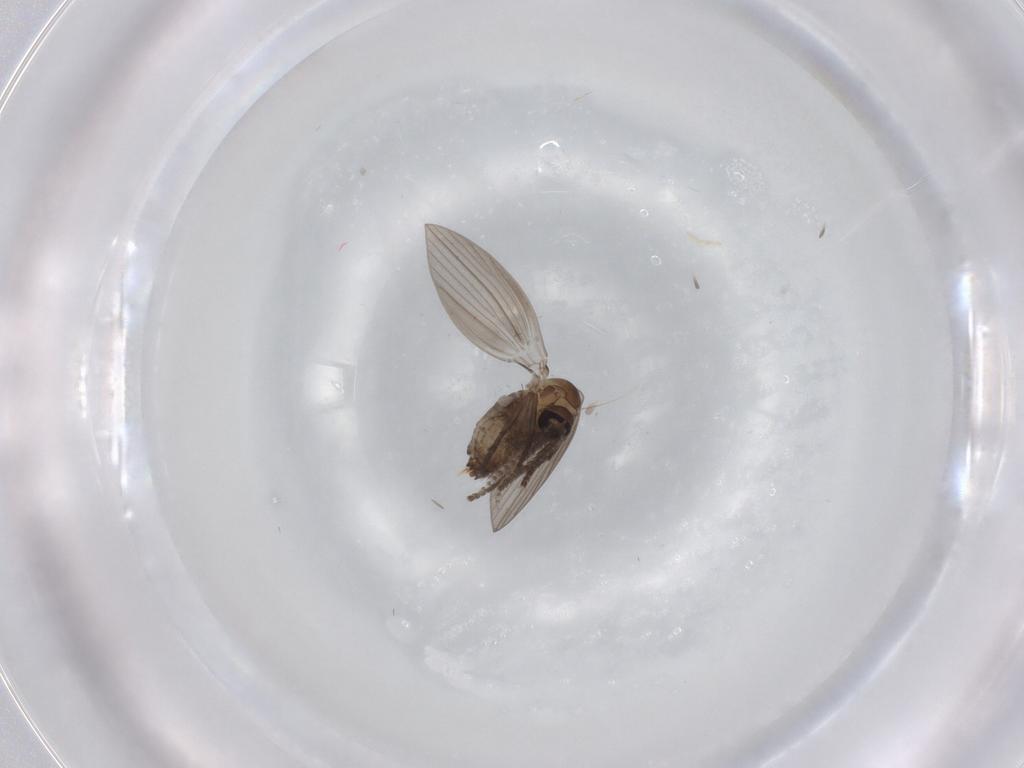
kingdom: Animalia
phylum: Arthropoda
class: Insecta
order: Diptera
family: Psychodidae
